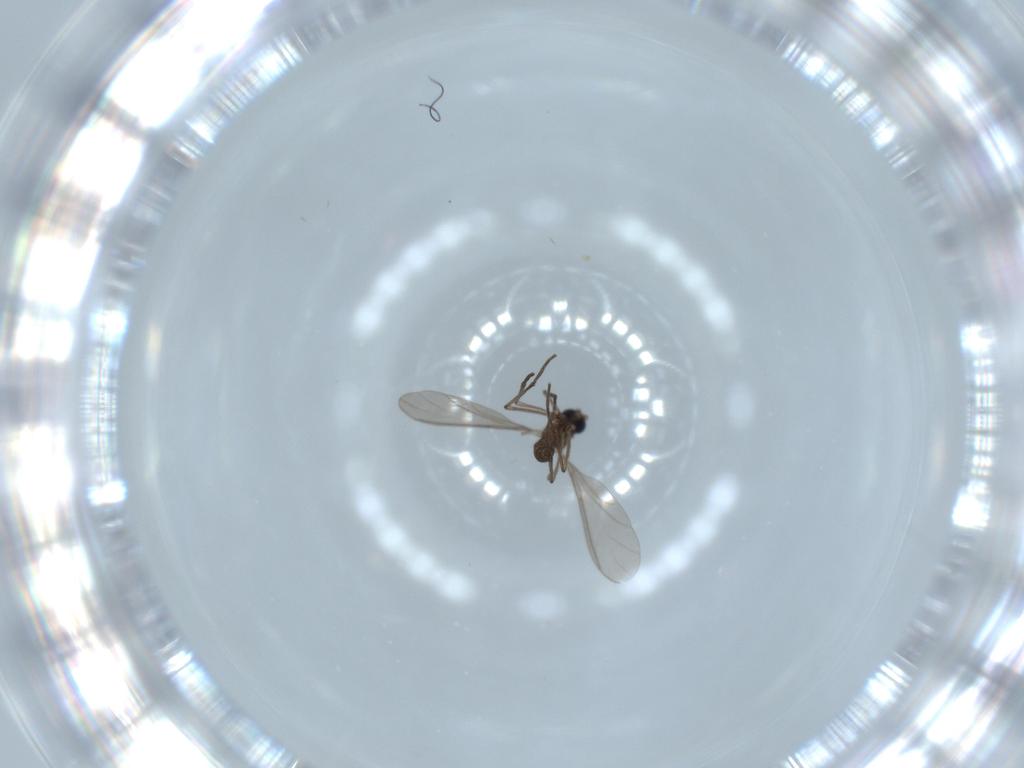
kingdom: Animalia
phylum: Arthropoda
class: Insecta
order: Diptera
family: Sciaridae
